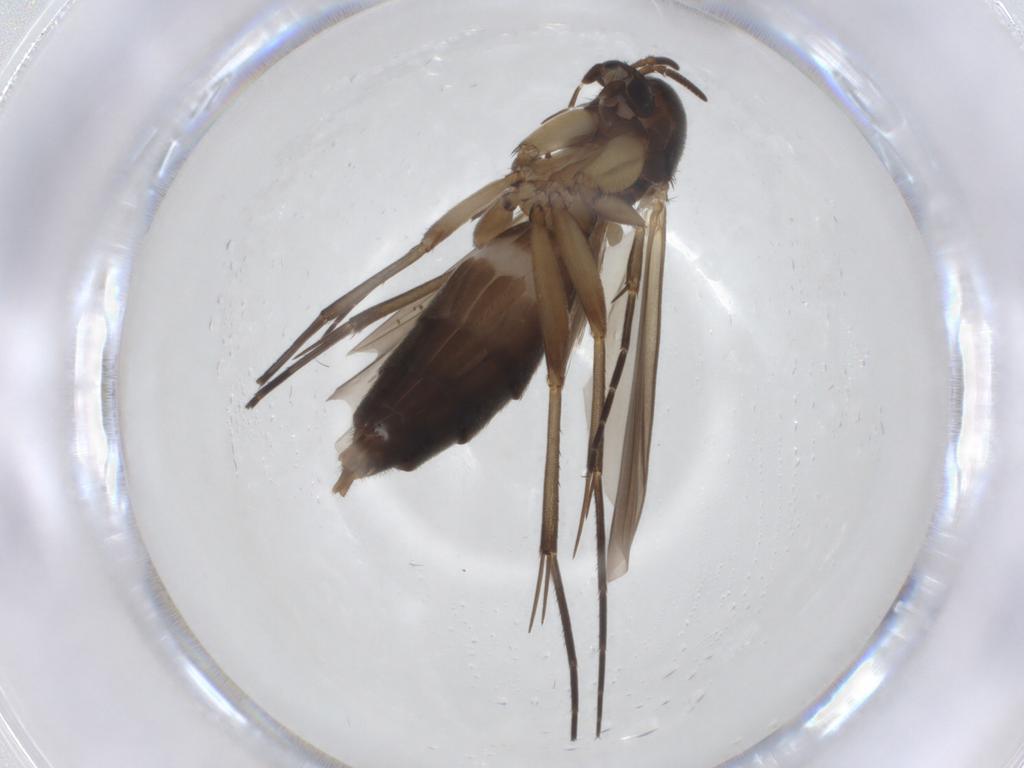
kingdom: Animalia
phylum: Arthropoda
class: Insecta
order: Diptera
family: Mycetophilidae
